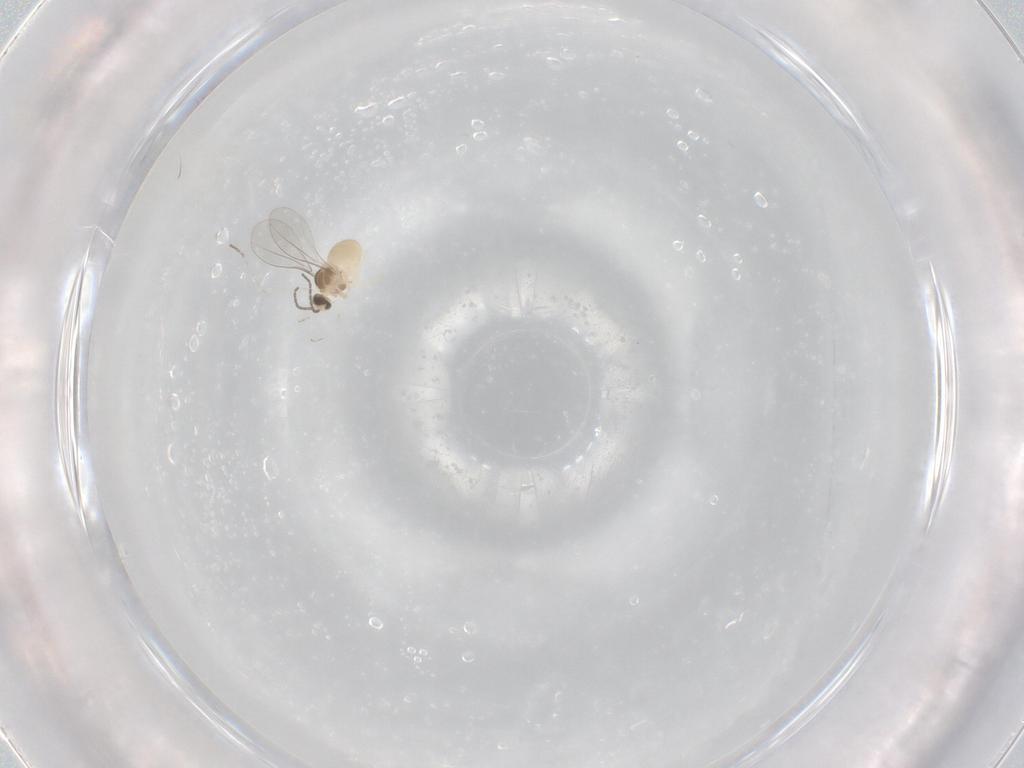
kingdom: Animalia
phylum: Arthropoda
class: Insecta
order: Diptera
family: Cecidomyiidae
